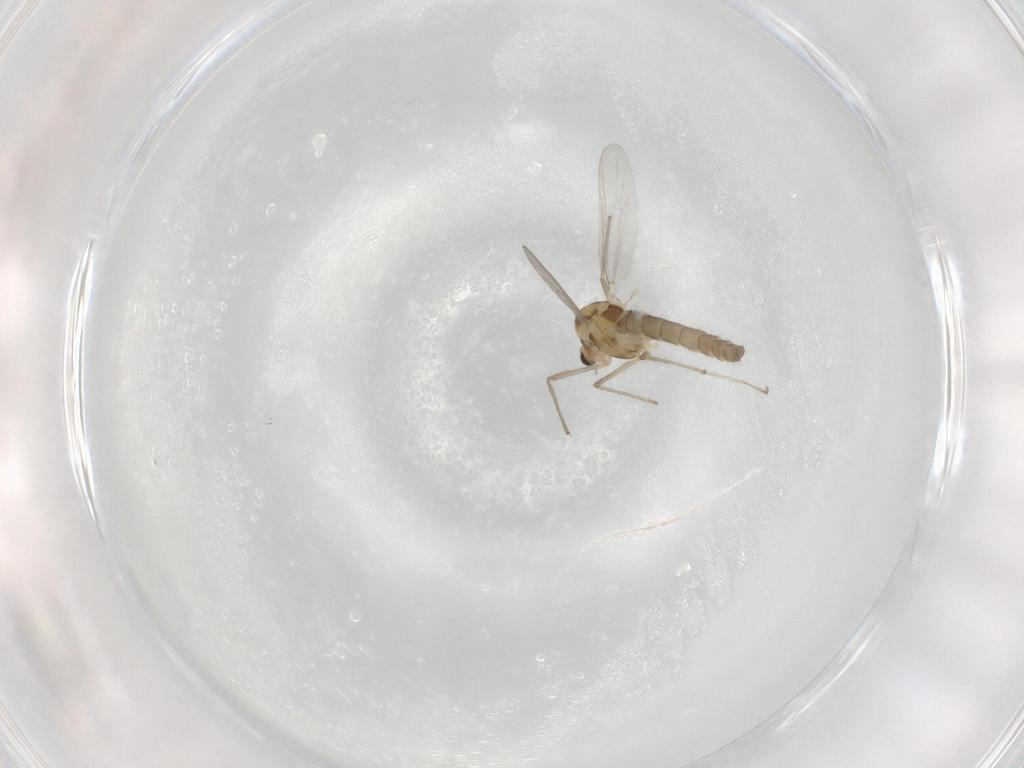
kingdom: Animalia
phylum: Arthropoda
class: Insecta
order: Diptera
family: Chironomidae
